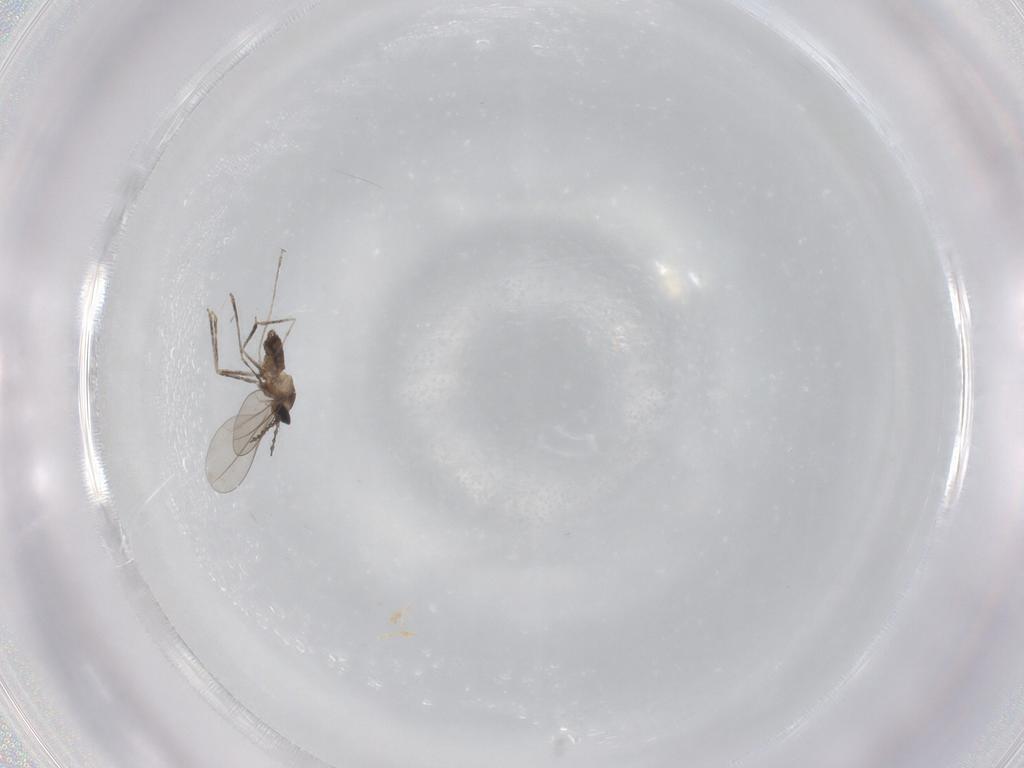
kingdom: Animalia
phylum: Arthropoda
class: Insecta
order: Diptera
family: Cecidomyiidae
